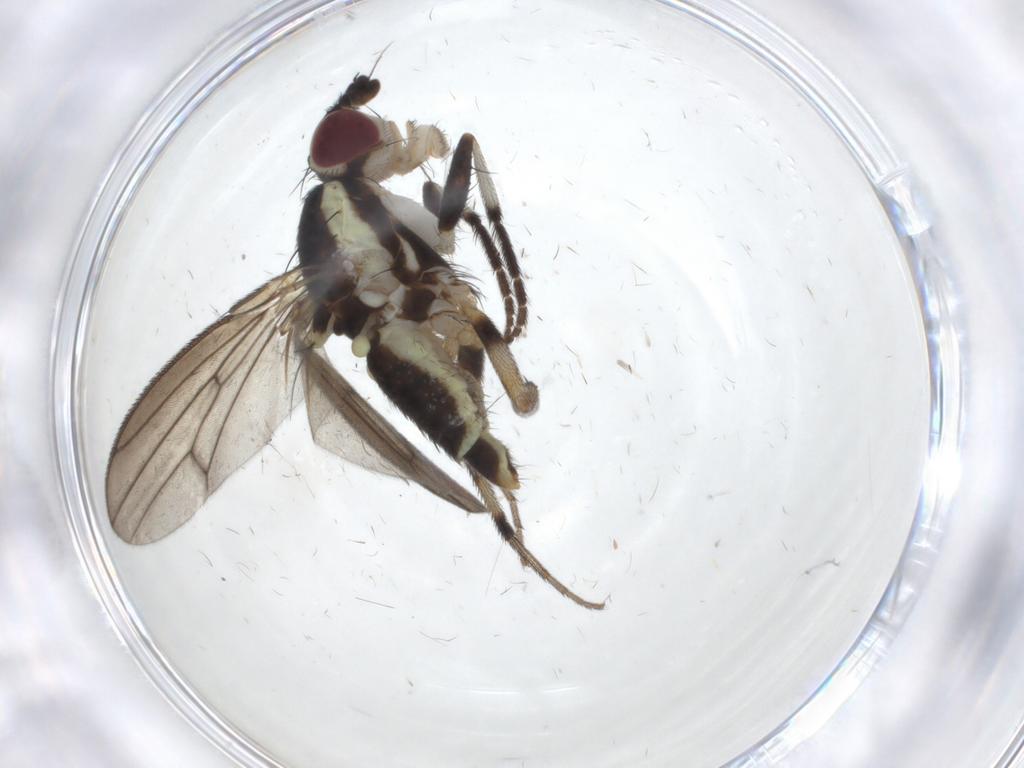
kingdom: Animalia
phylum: Arthropoda
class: Insecta
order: Diptera
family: Pseudopomyzidae
